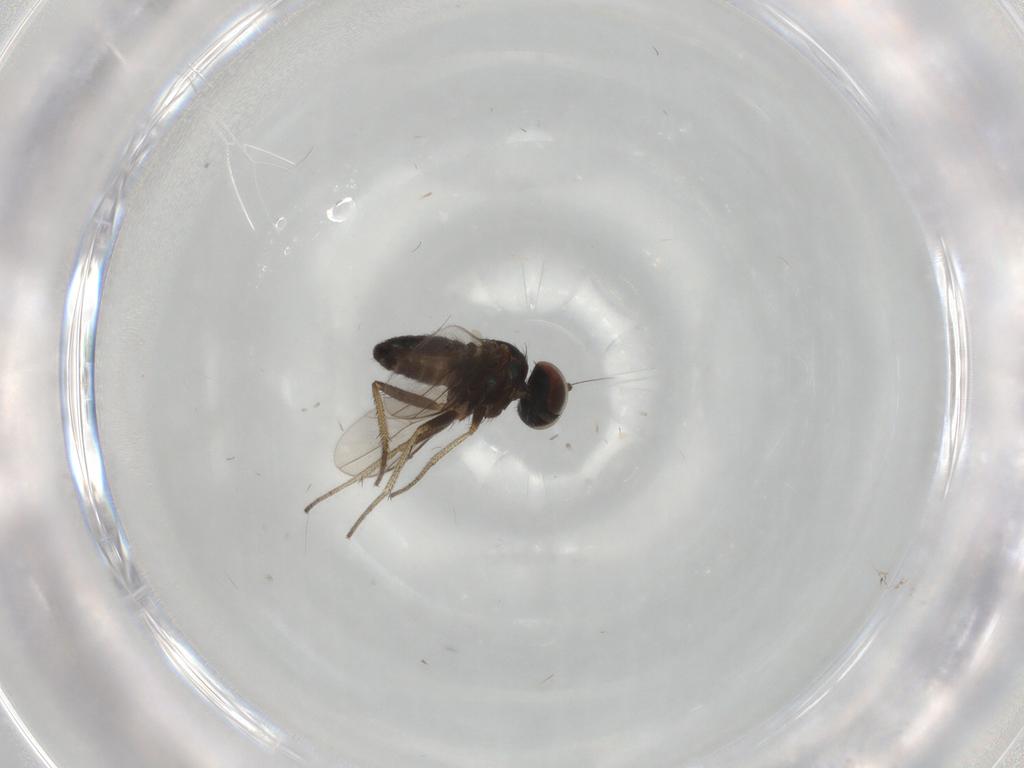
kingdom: Animalia
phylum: Arthropoda
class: Insecta
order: Diptera
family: Dolichopodidae
